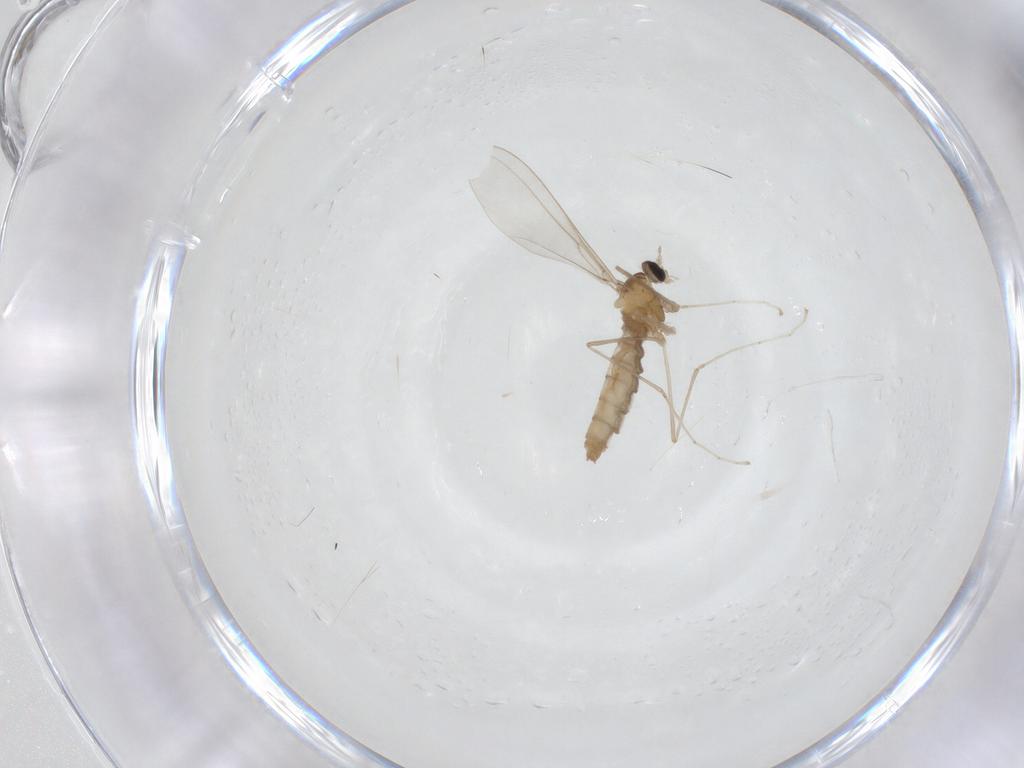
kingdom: Animalia
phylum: Arthropoda
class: Insecta
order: Diptera
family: Cecidomyiidae
